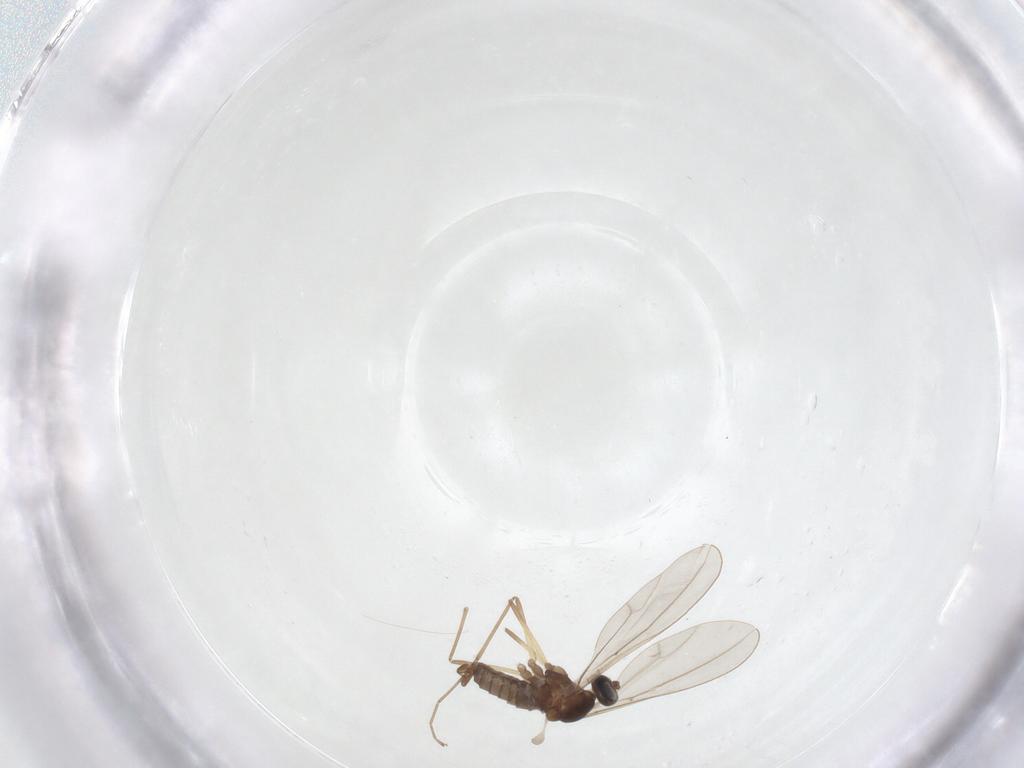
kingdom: Animalia
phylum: Arthropoda
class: Insecta
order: Diptera
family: Cecidomyiidae
